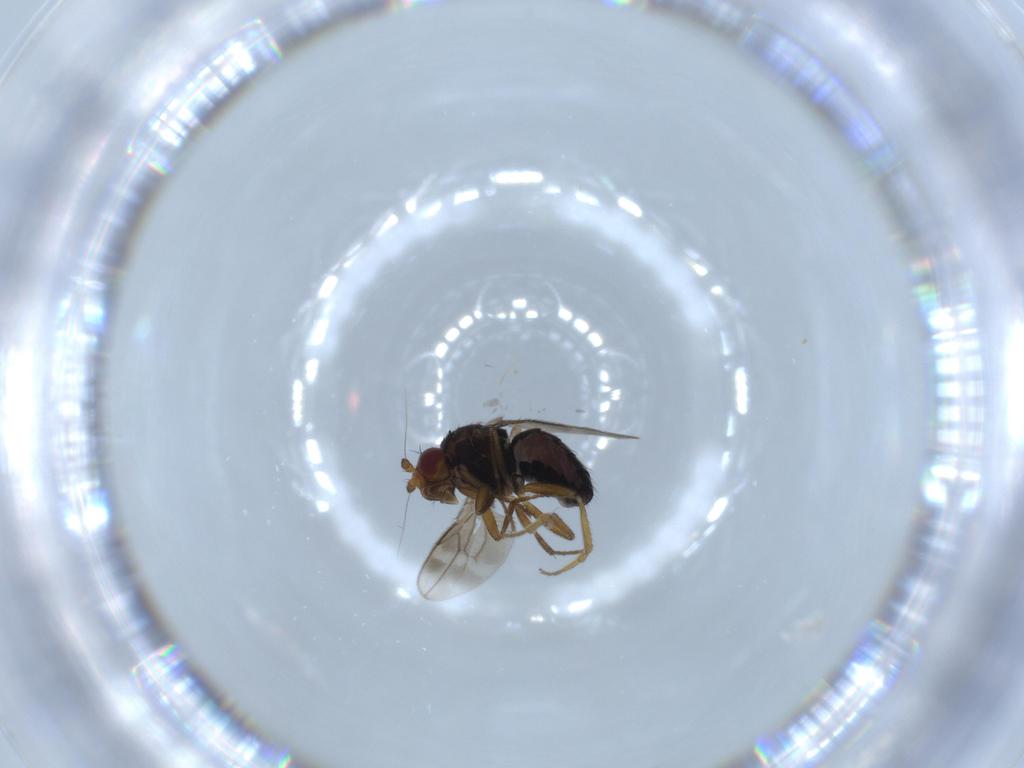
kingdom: Animalia
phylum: Arthropoda
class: Insecta
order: Diptera
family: Sphaeroceridae
